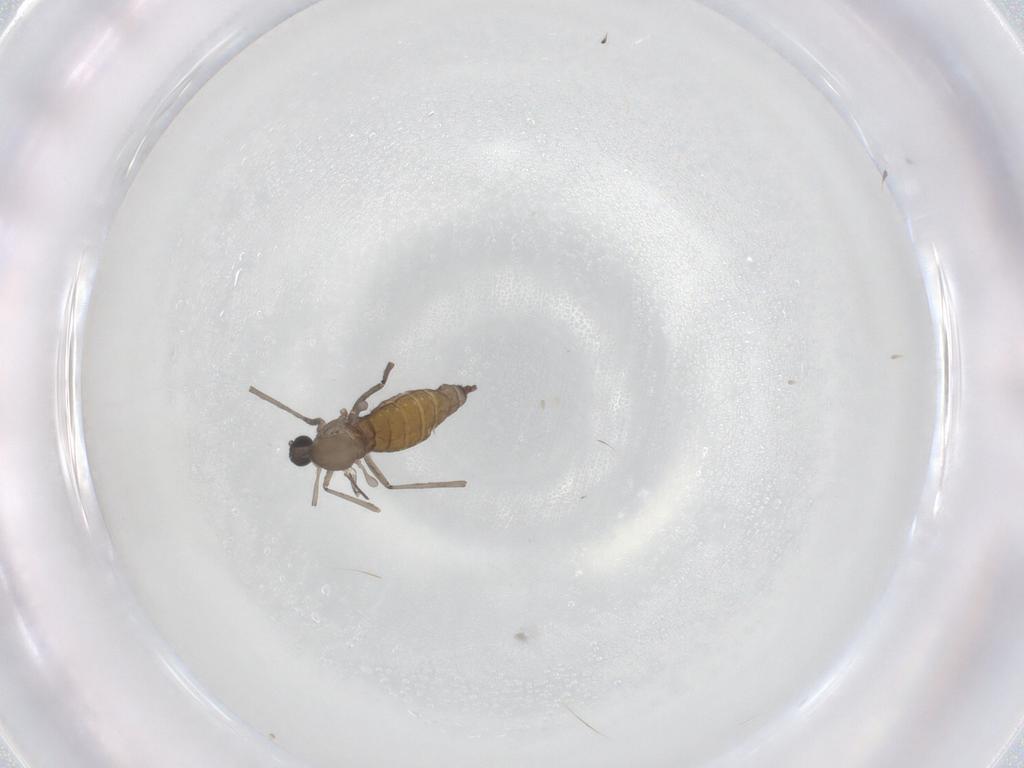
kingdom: Animalia
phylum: Arthropoda
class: Insecta
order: Diptera
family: Cecidomyiidae
